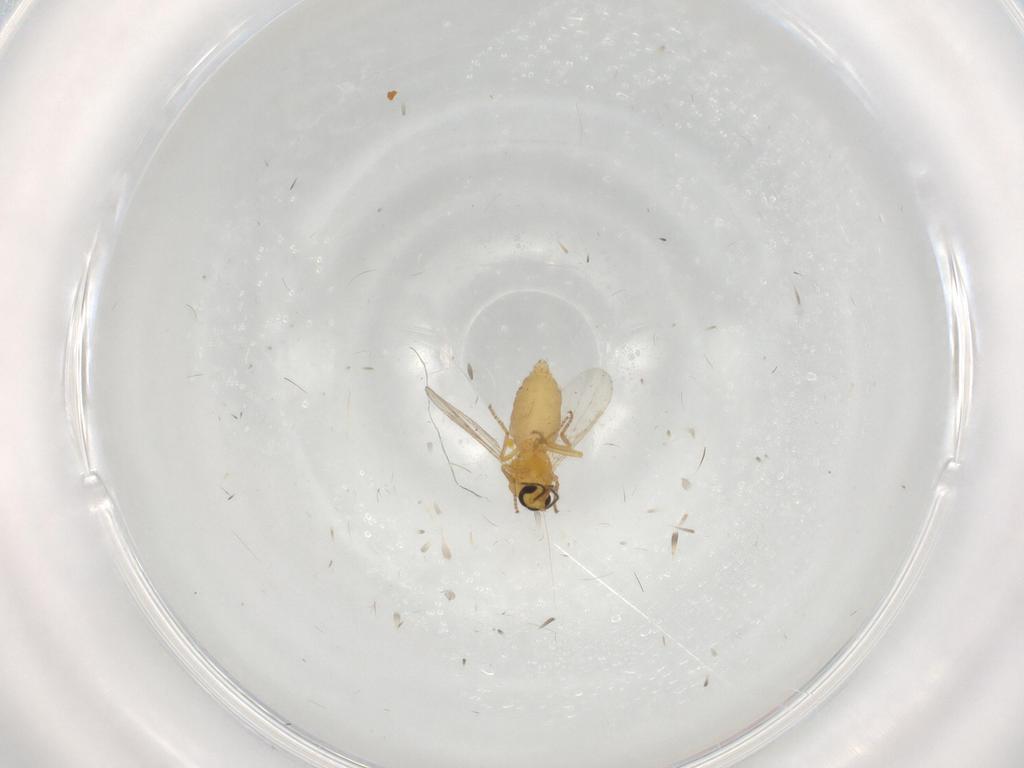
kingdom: Animalia
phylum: Arthropoda
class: Insecta
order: Diptera
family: Ceratopogonidae
